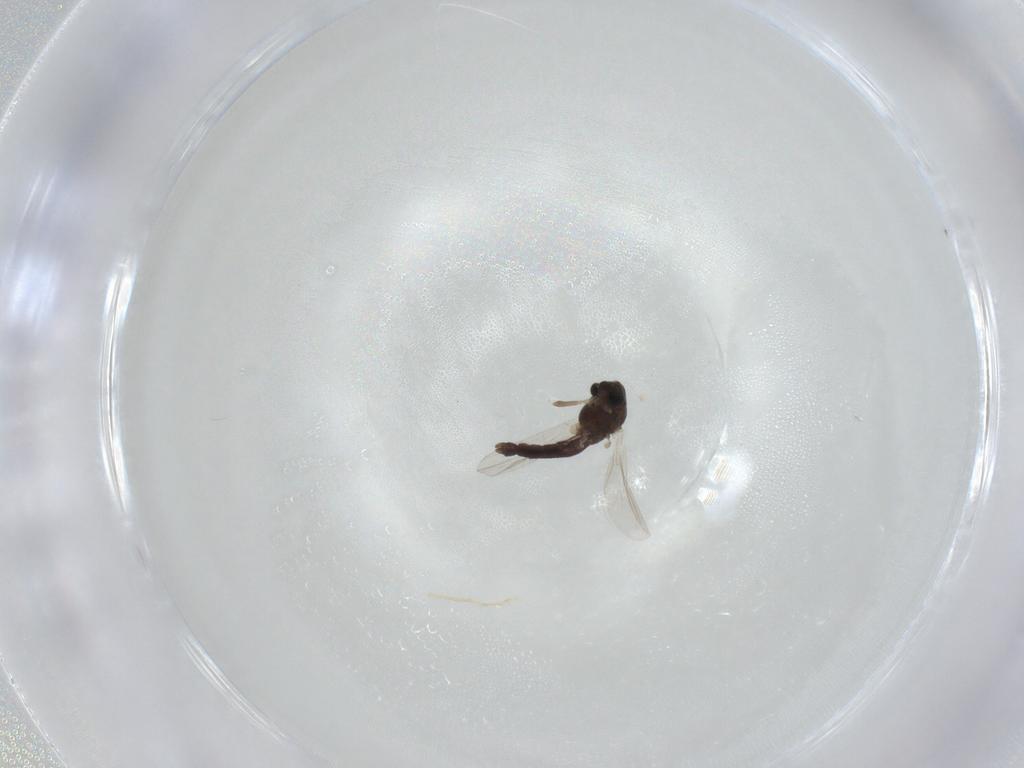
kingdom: Animalia
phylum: Arthropoda
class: Insecta
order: Diptera
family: Chironomidae
